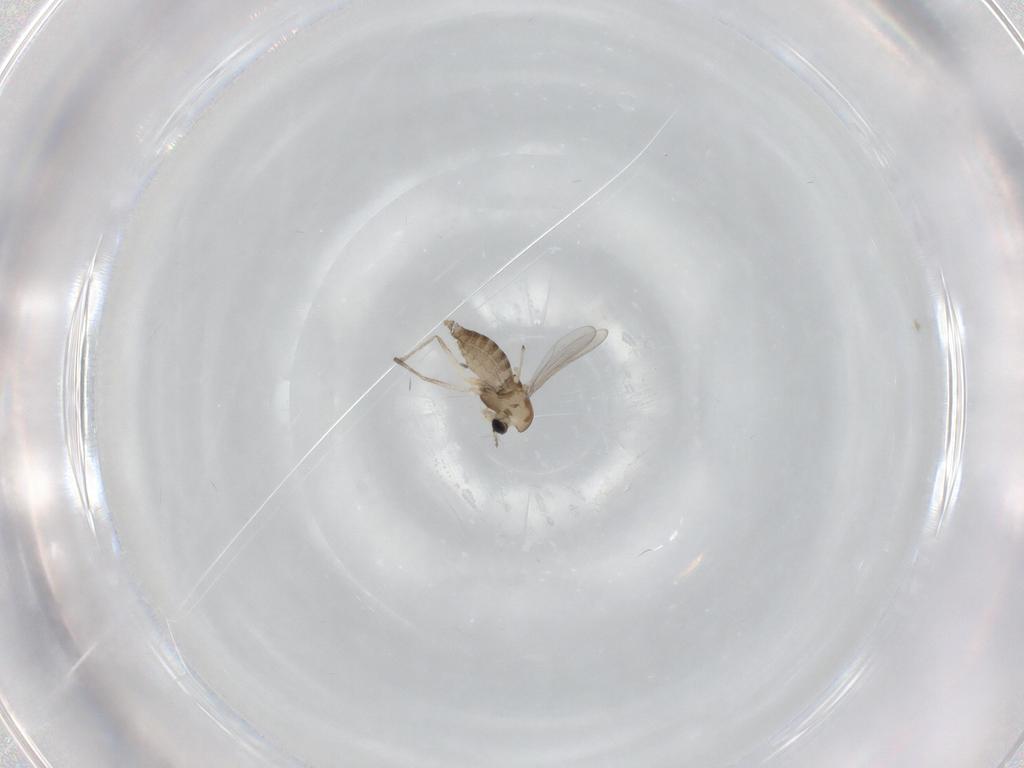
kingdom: Animalia
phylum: Arthropoda
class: Insecta
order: Diptera
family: Chironomidae
